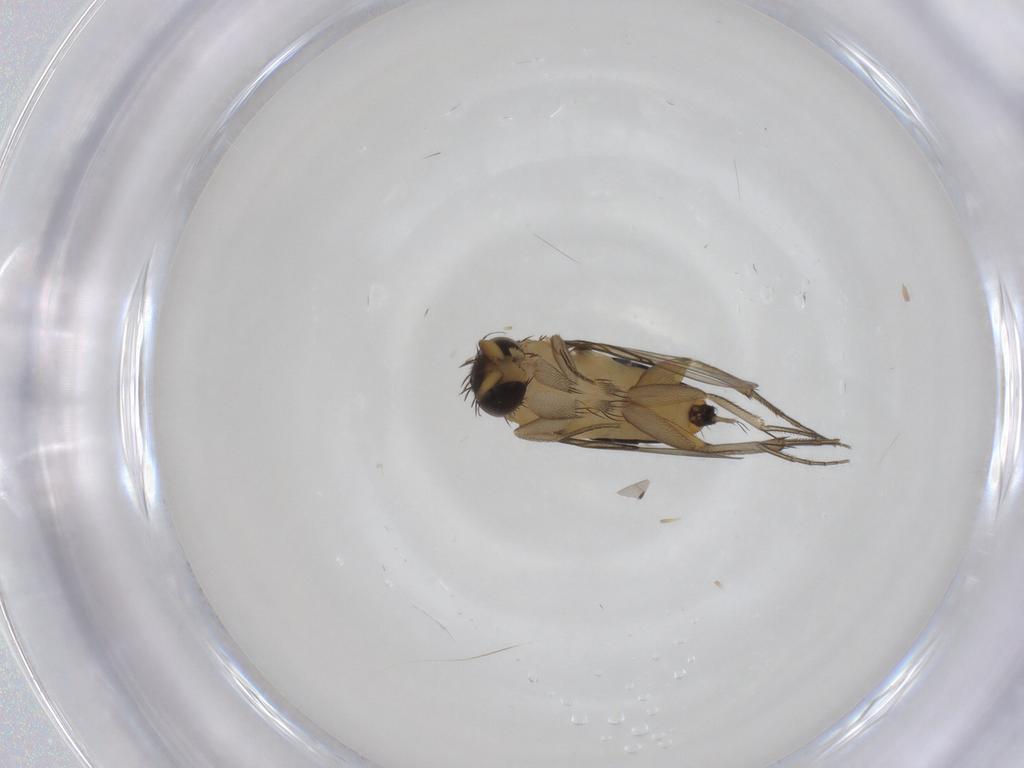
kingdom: Animalia
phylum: Arthropoda
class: Insecta
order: Diptera
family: Phoridae
